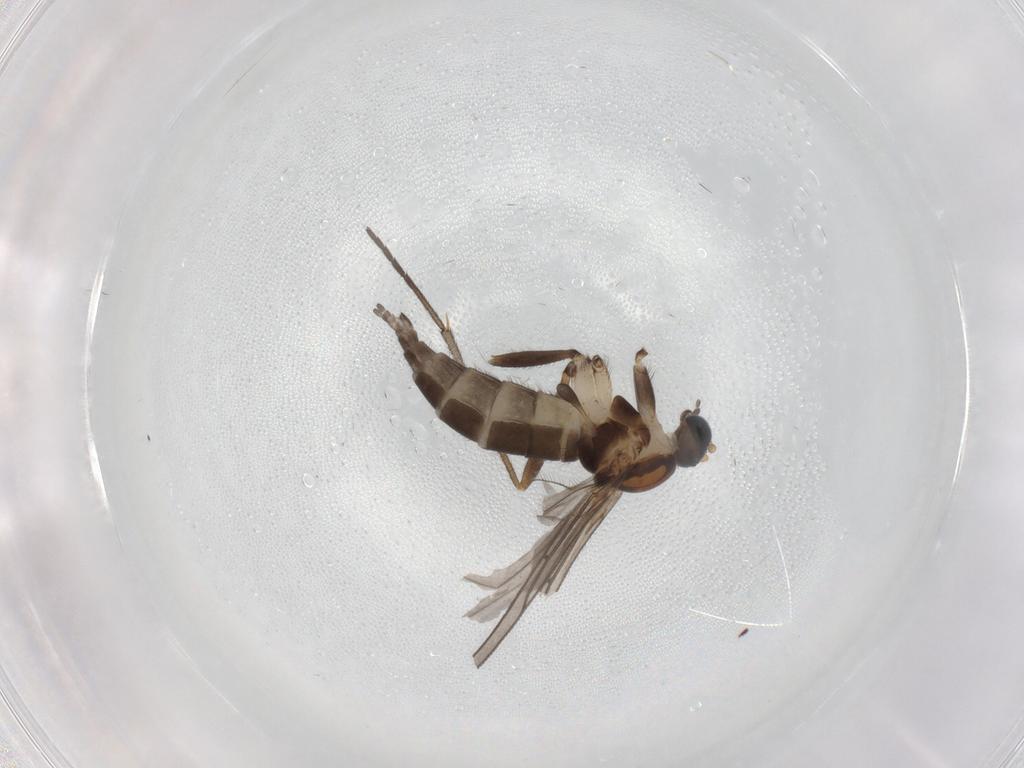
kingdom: Animalia
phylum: Arthropoda
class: Insecta
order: Diptera
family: Sciaridae
